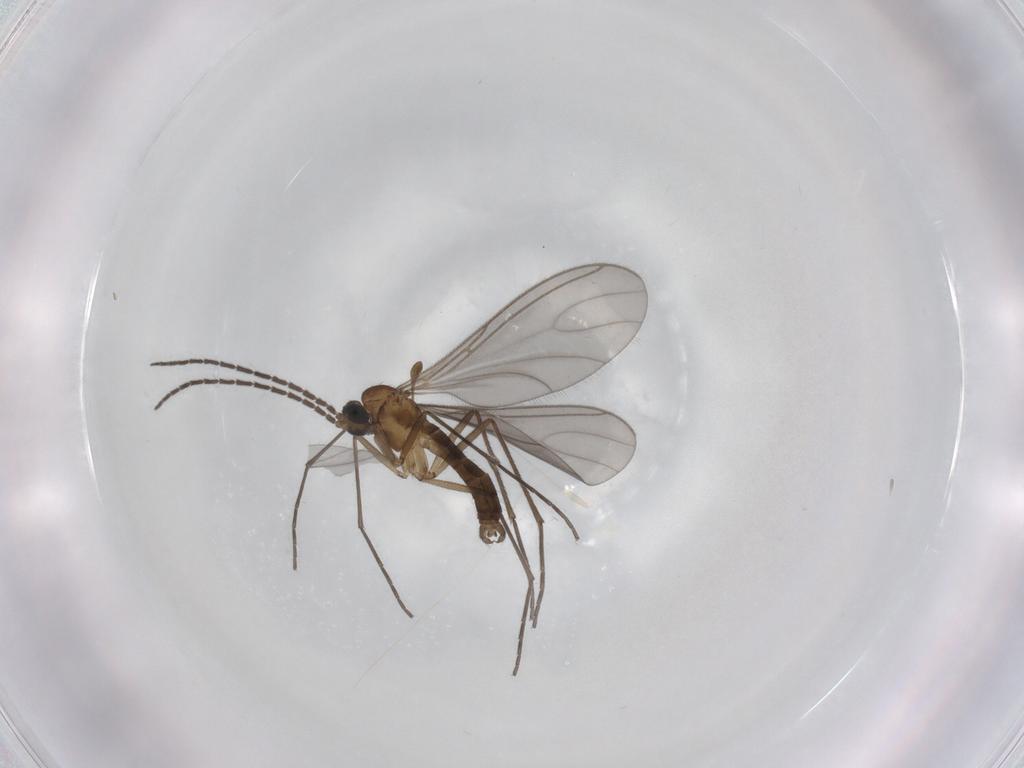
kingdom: Animalia
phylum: Arthropoda
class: Insecta
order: Diptera
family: Sciaridae
